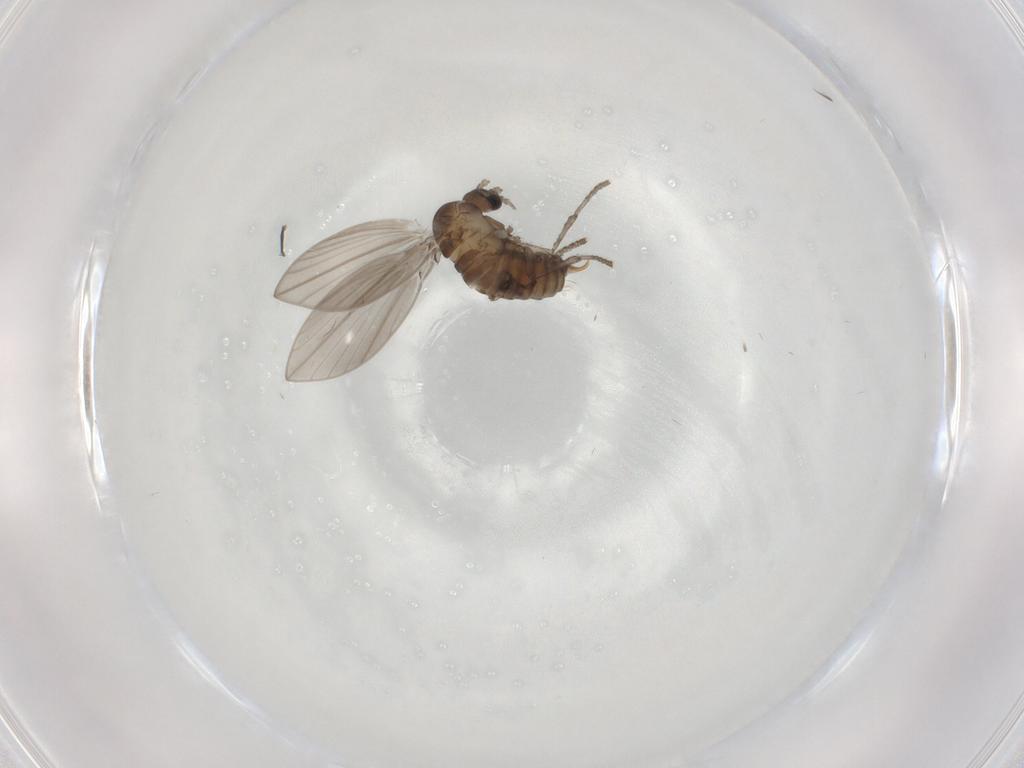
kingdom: Animalia
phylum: Arthropoda
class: Insecta
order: Diptera
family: Psychodidae
